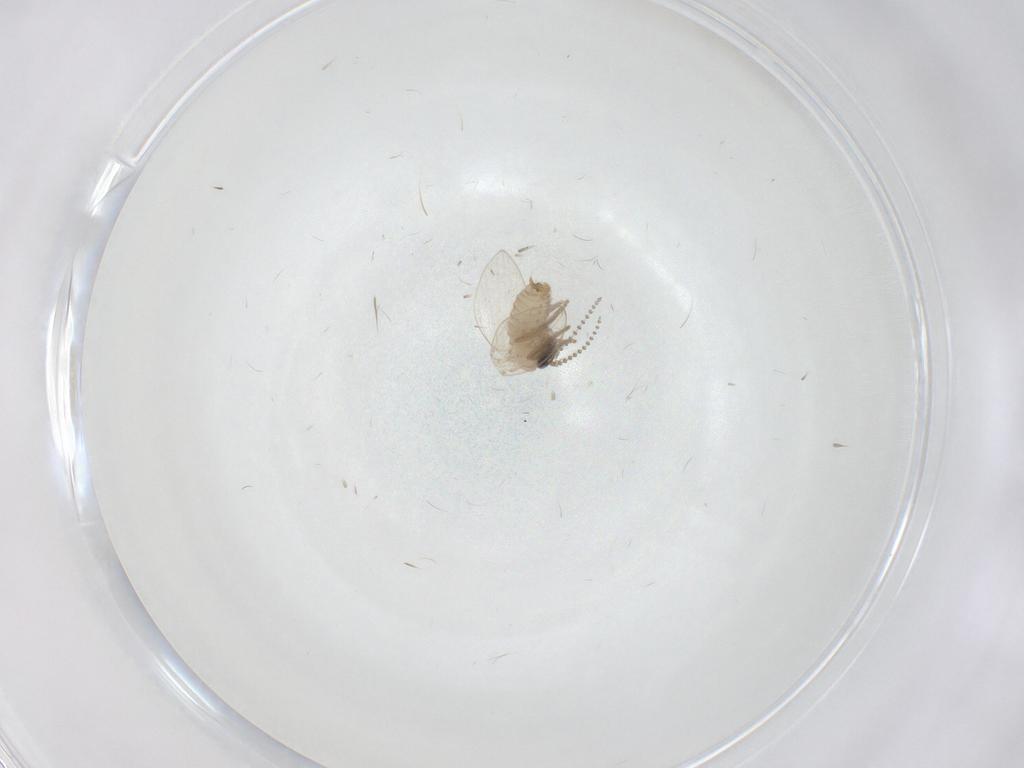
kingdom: Animalia
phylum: Arthropoda
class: Insecta
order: Diptera
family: Psychodidae
